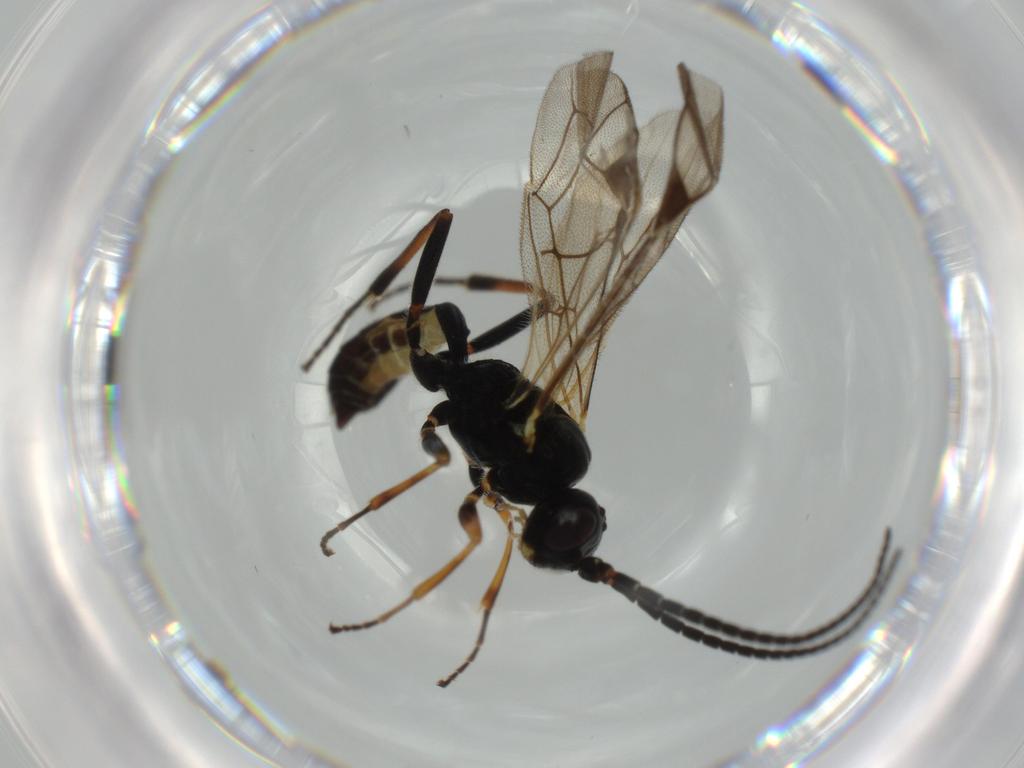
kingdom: Animalia
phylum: Arthropoda
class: Insecta
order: Hymenoptera
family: Ichneumonidae
